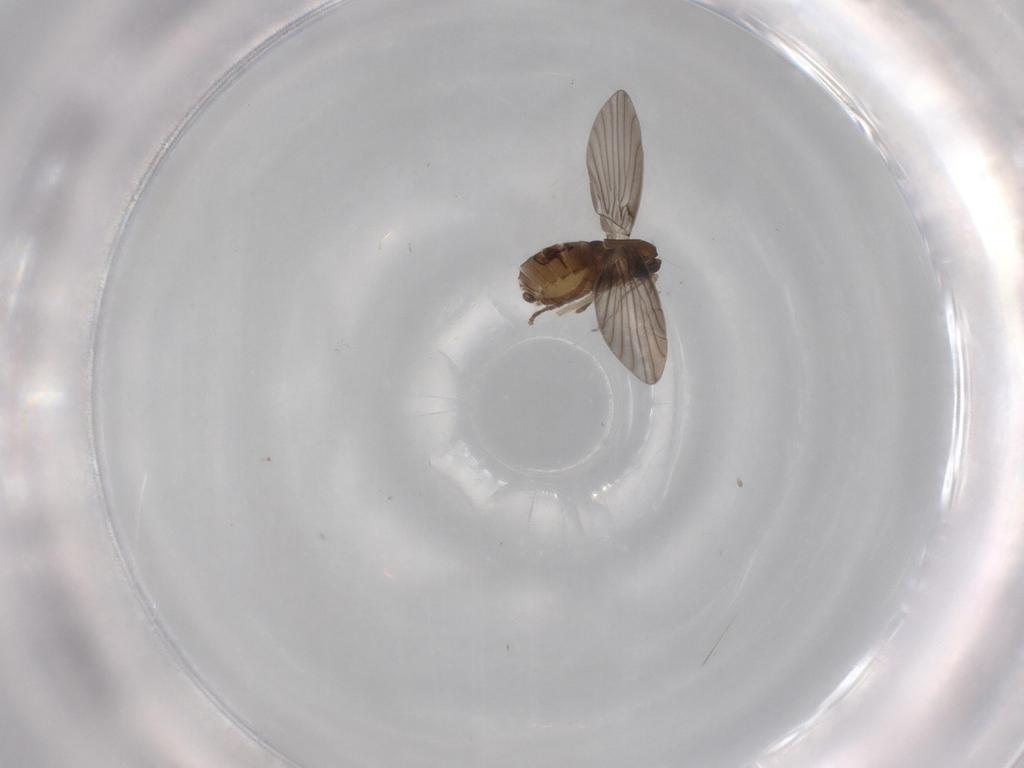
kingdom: Animalia
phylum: Arthropoda
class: Insecta
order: Diptera
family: Psychodidae
